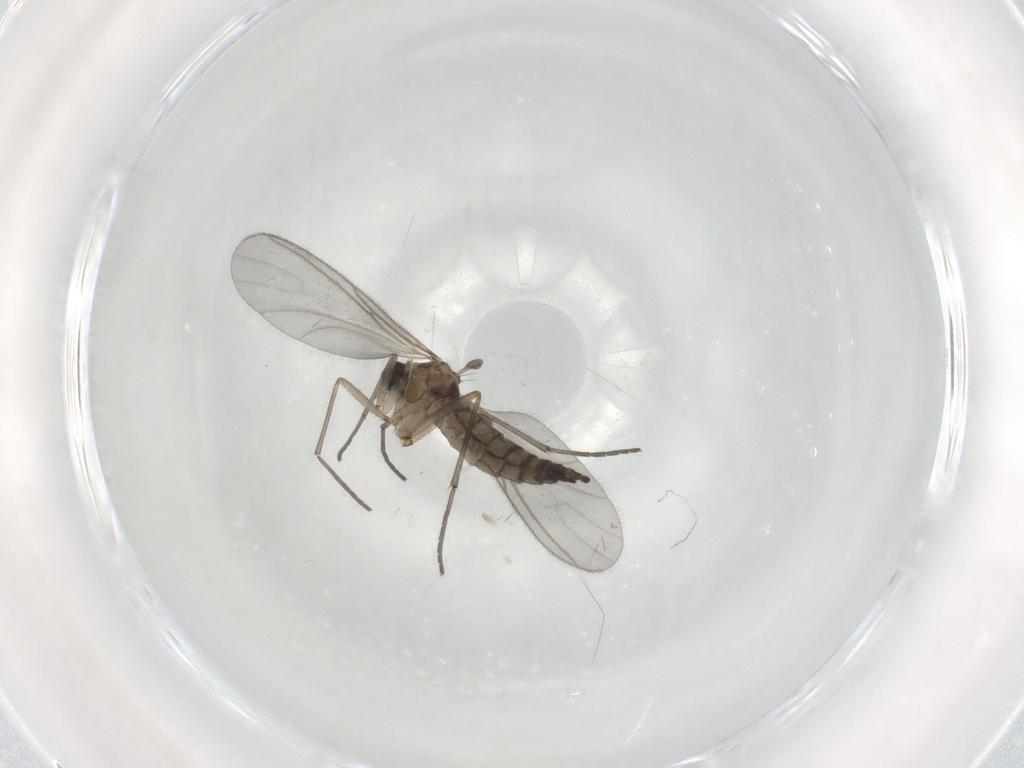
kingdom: Animalia
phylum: Arthropoda
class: Insecta
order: Diptera
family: Sciaridae
